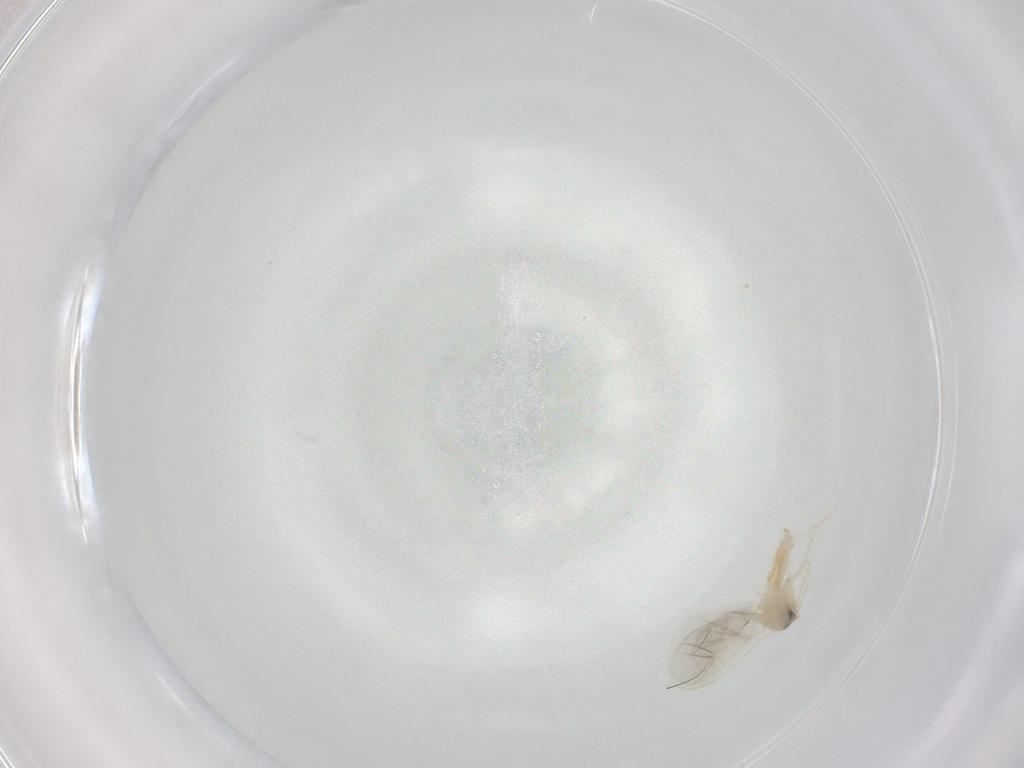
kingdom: Animalia
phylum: Arthropoda
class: Insecta
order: Hemiptera
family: Aleyrodidae
